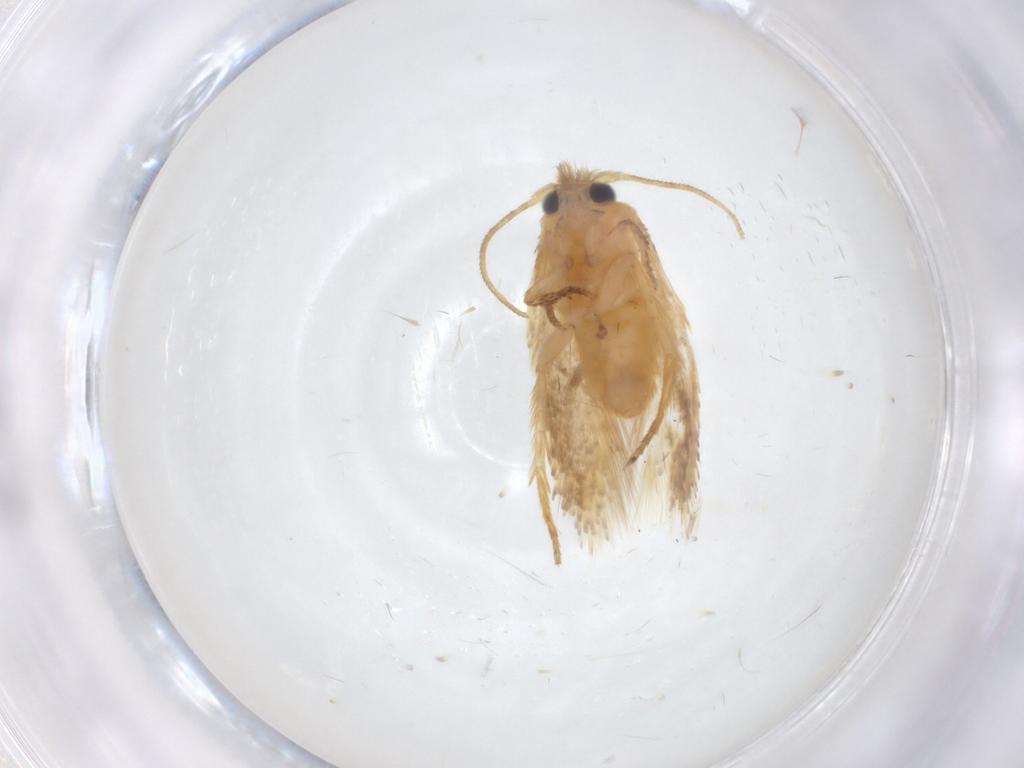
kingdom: Animalia
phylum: Arthropoda
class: Insecta
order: Lepidoptera
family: Nepticulidae
